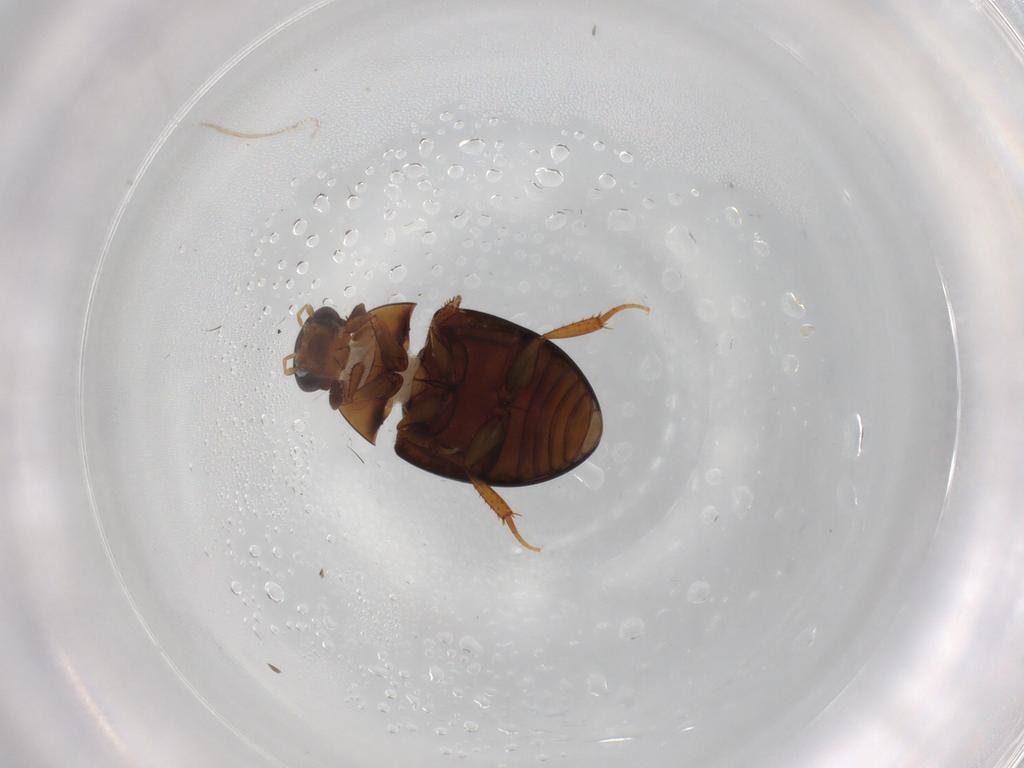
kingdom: Animalia
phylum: Arthropoda
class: Insecta
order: Coleoptera
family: Hydrophilidae
